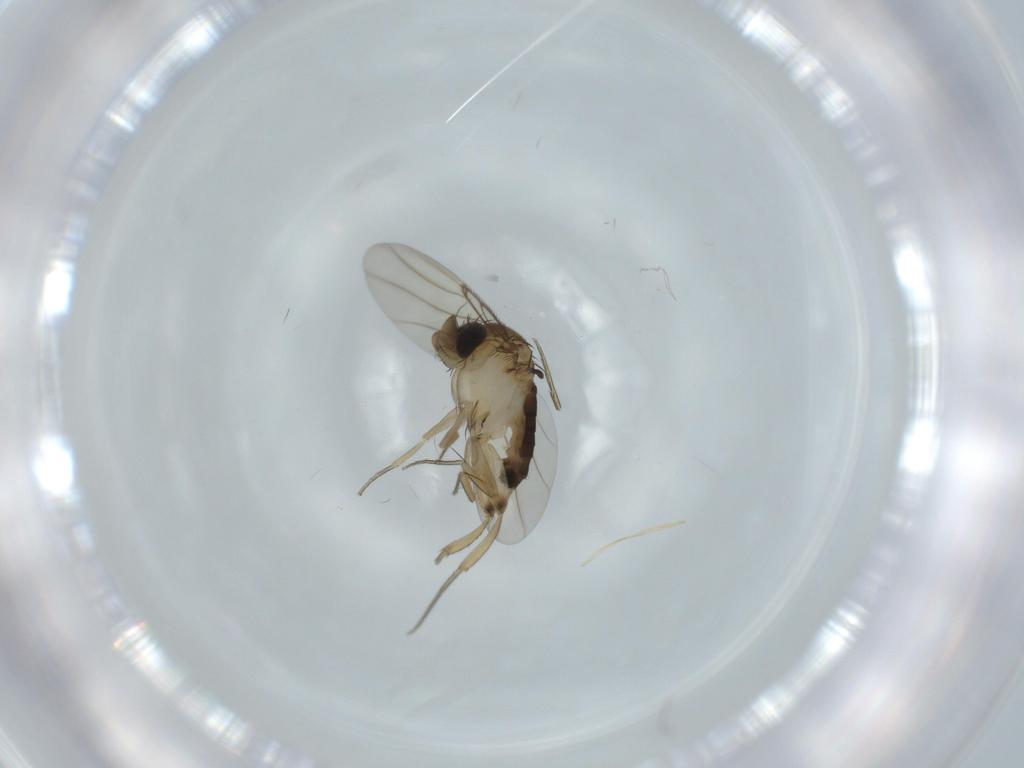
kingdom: Animalia
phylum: Arthropoda
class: Insecta
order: Diptera
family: Phoridae
